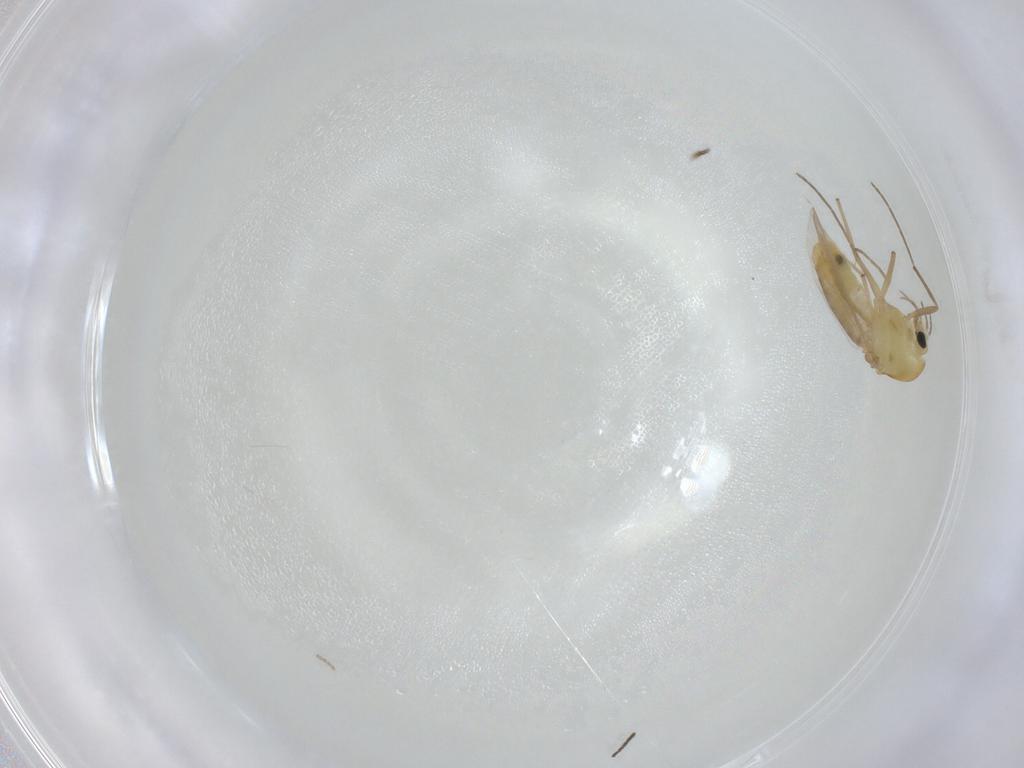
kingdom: Animalia
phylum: Arthropoda
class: Insecta
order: Diptera
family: Chironomidae
